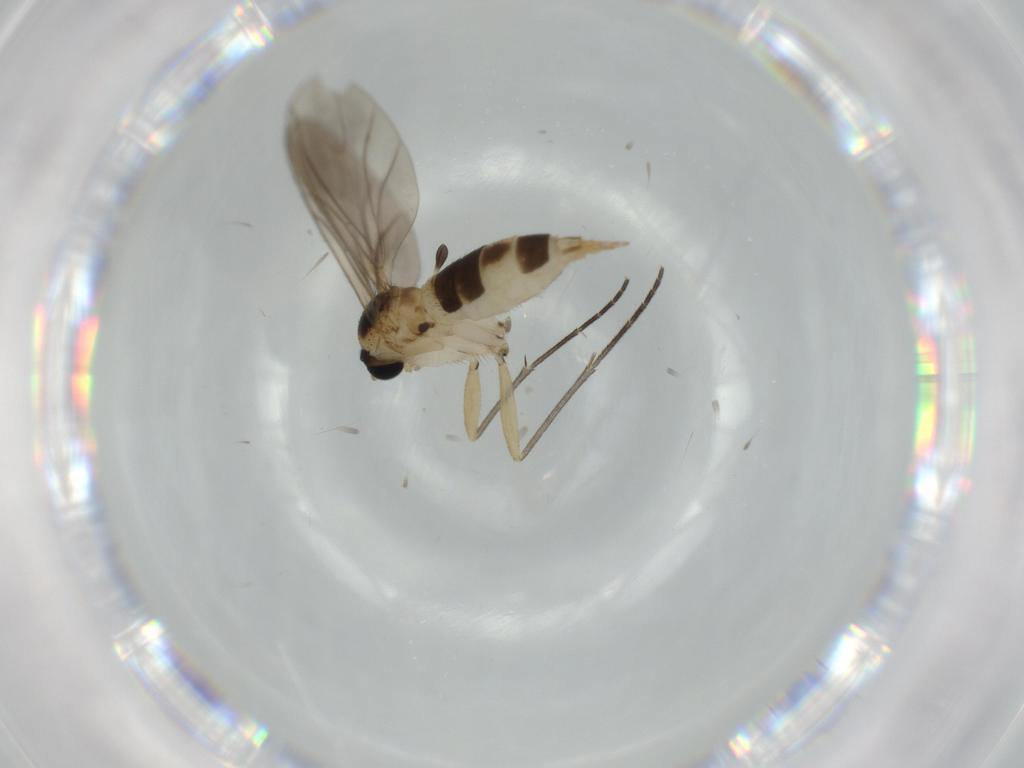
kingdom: Animalia
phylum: Arthropoda
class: Insecta
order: Diptera
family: Sciaridae
